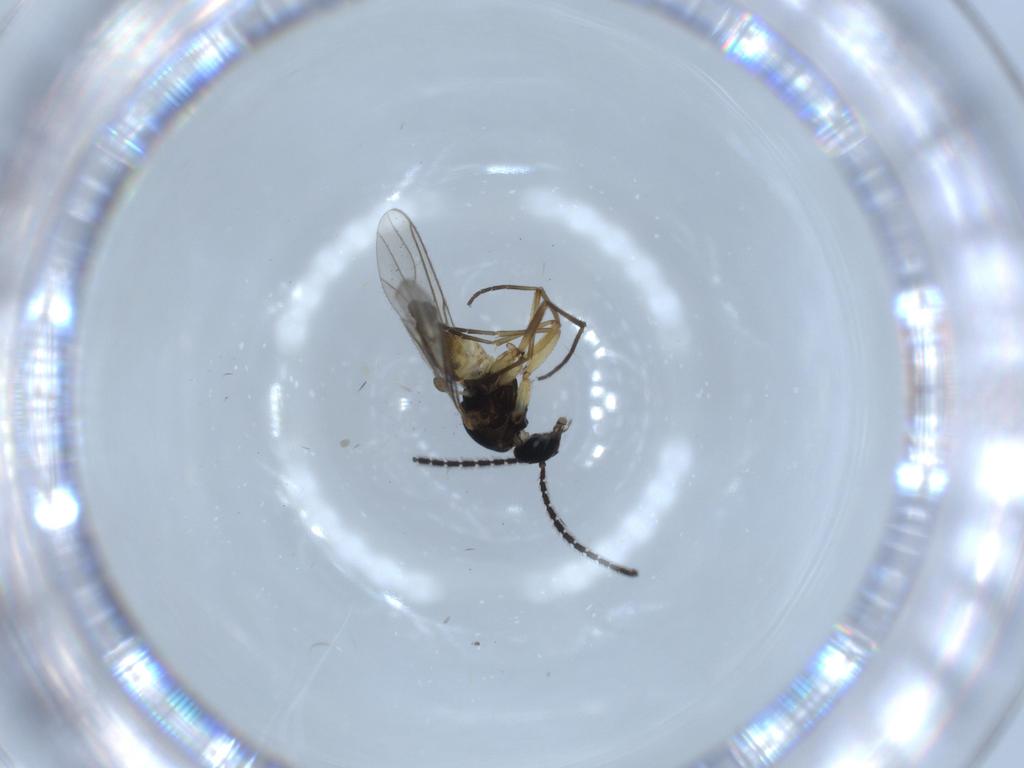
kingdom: Animalia
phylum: Arthropoda
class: Insecta
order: Diptera
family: Sciaridae
